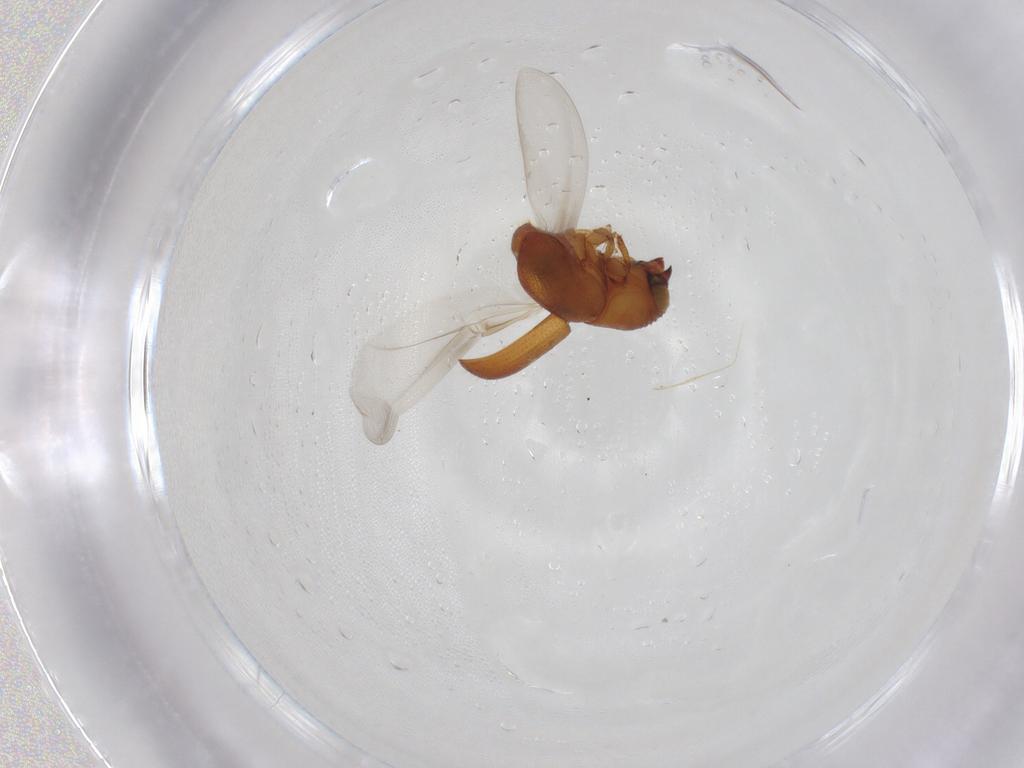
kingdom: Animalia
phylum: Arthropoda
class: Insecta
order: Coleoptera
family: Curculionidae
